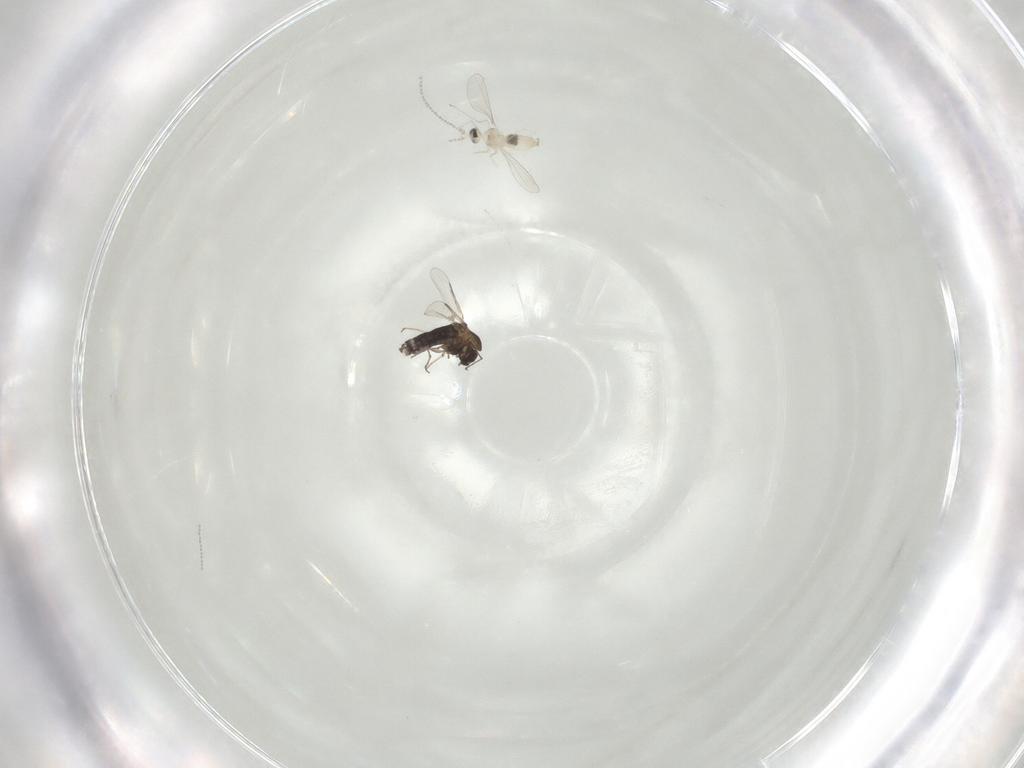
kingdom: Animalia
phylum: Arthropoda
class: Insecta
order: Diptera
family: Chironomidae
